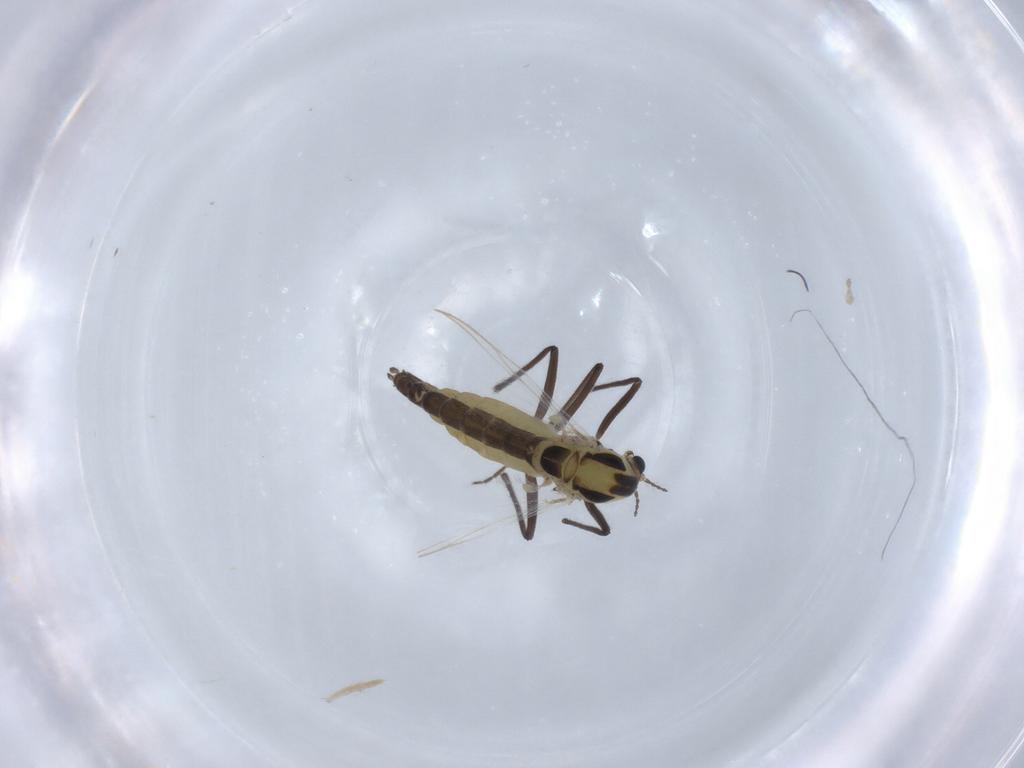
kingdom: Animalia
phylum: Arthropoda
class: Insecta
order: Diptera
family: Chironomidae
